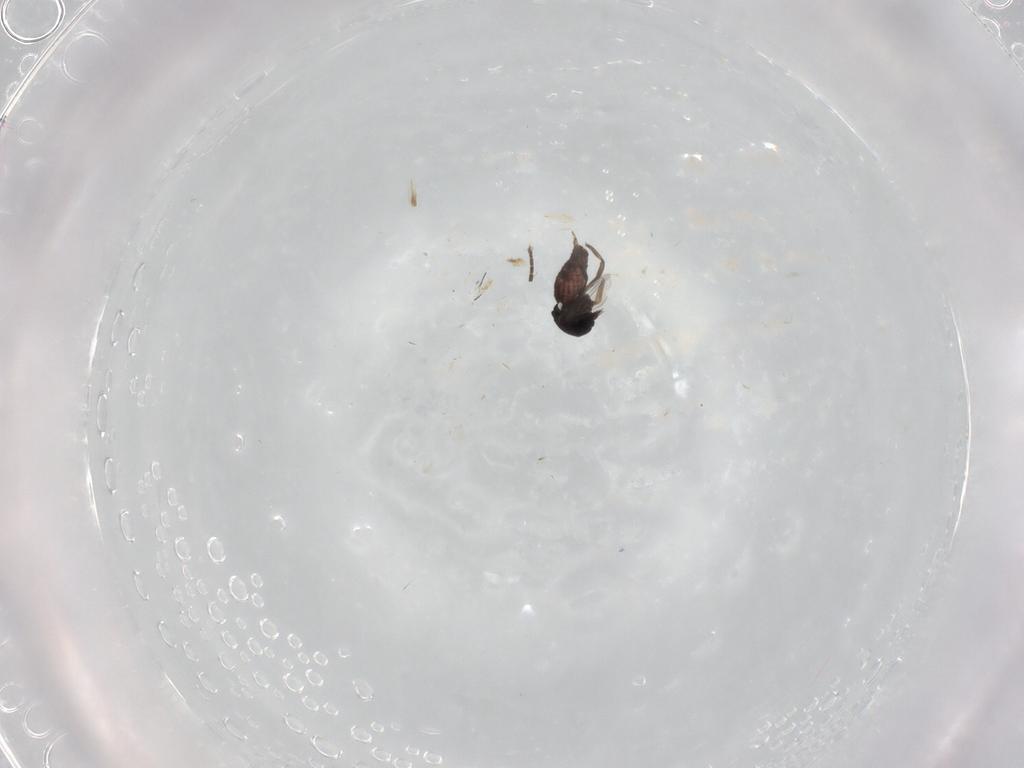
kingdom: Animalia
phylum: Arthropoda
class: Insecta
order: Diptera
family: Ceratopogonidae
